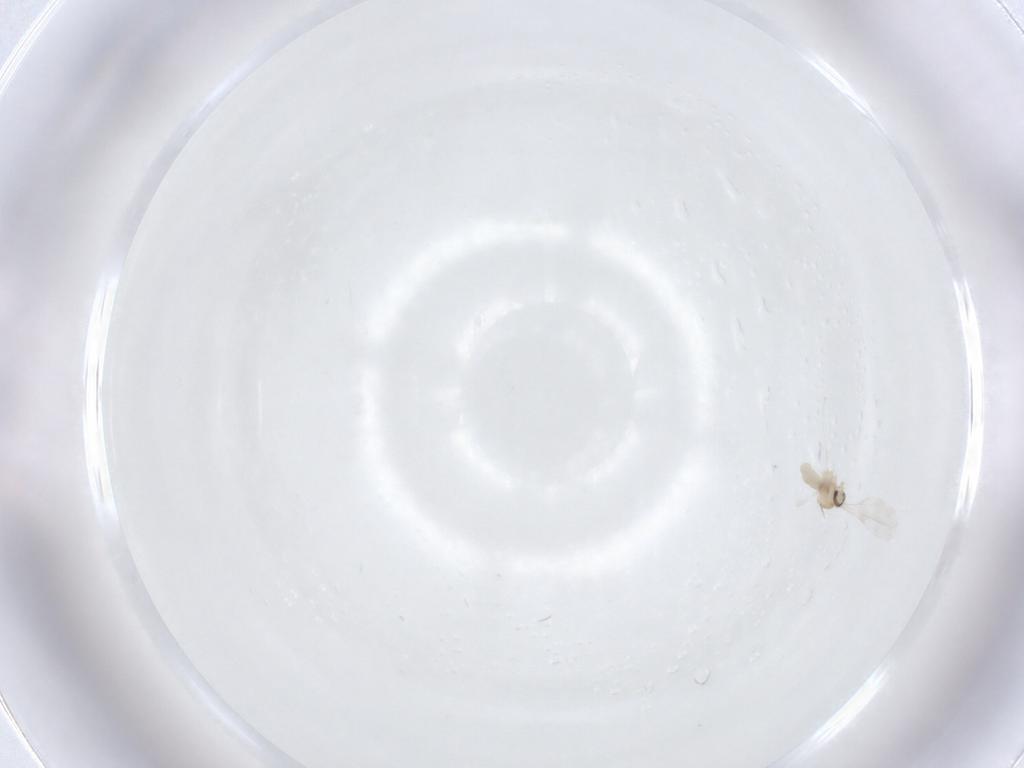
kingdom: Animalia
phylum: Arthropoda
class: Insecta
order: Diptera
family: Cecidomyiidae
